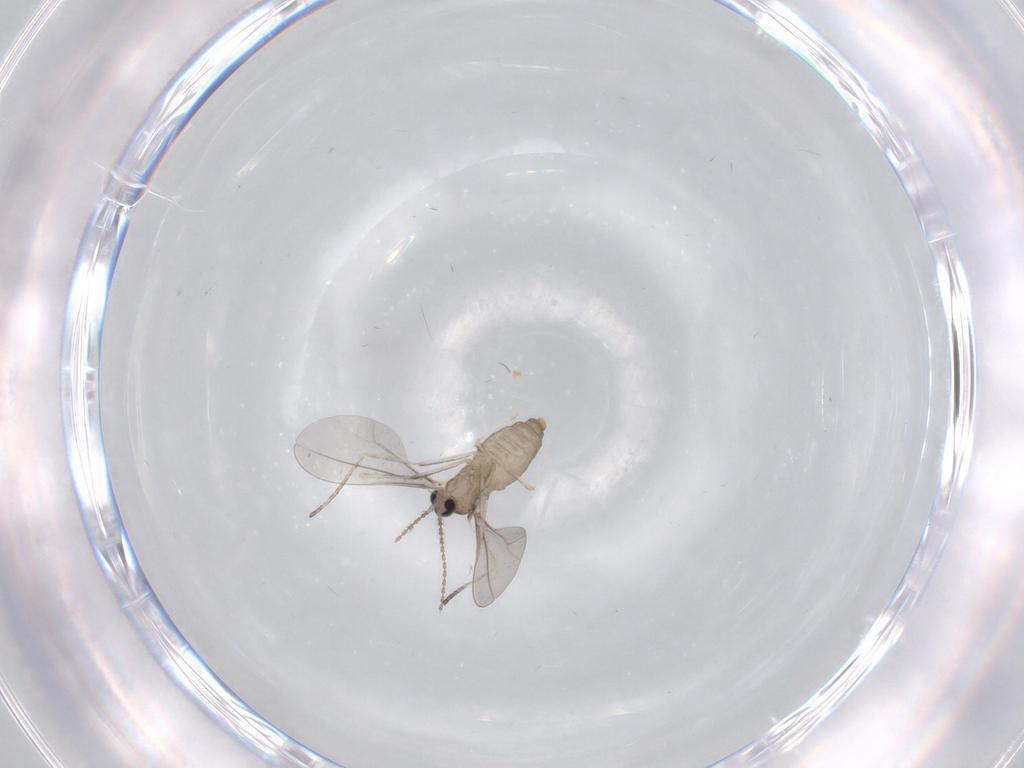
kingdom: Animalia
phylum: Arthropoda
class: Insecta
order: Diptera
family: Cecidomyiidae
